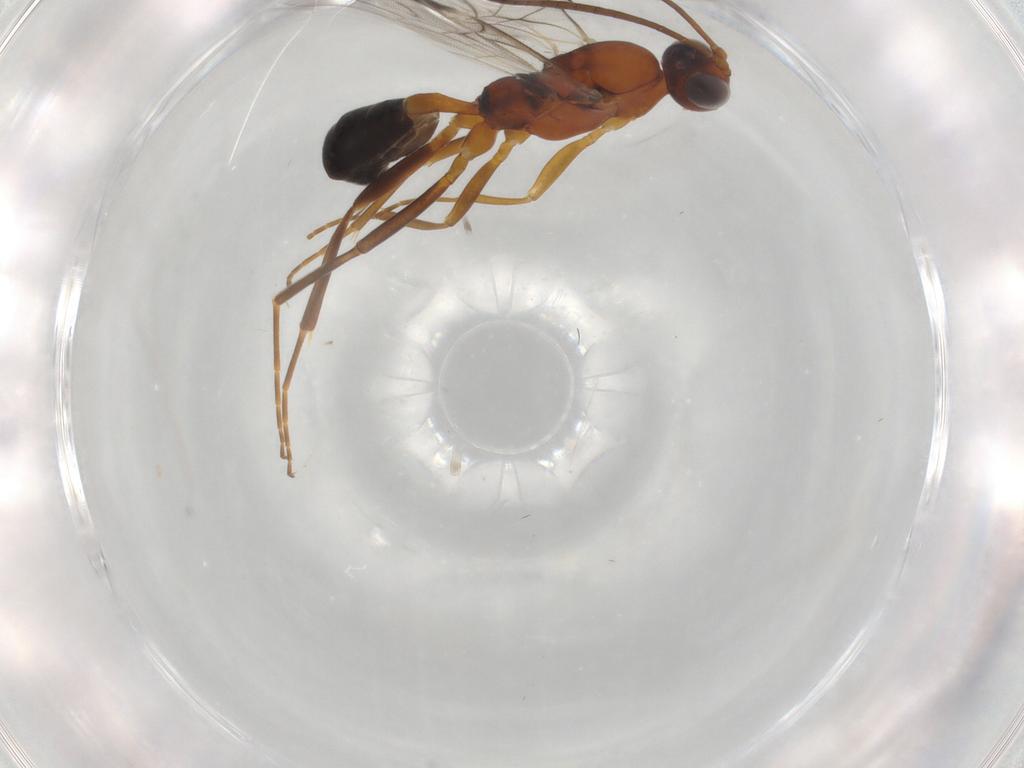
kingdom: Animalia
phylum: Arthropoda
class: Insecta
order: Hymenoptera
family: Ichneumonidae
